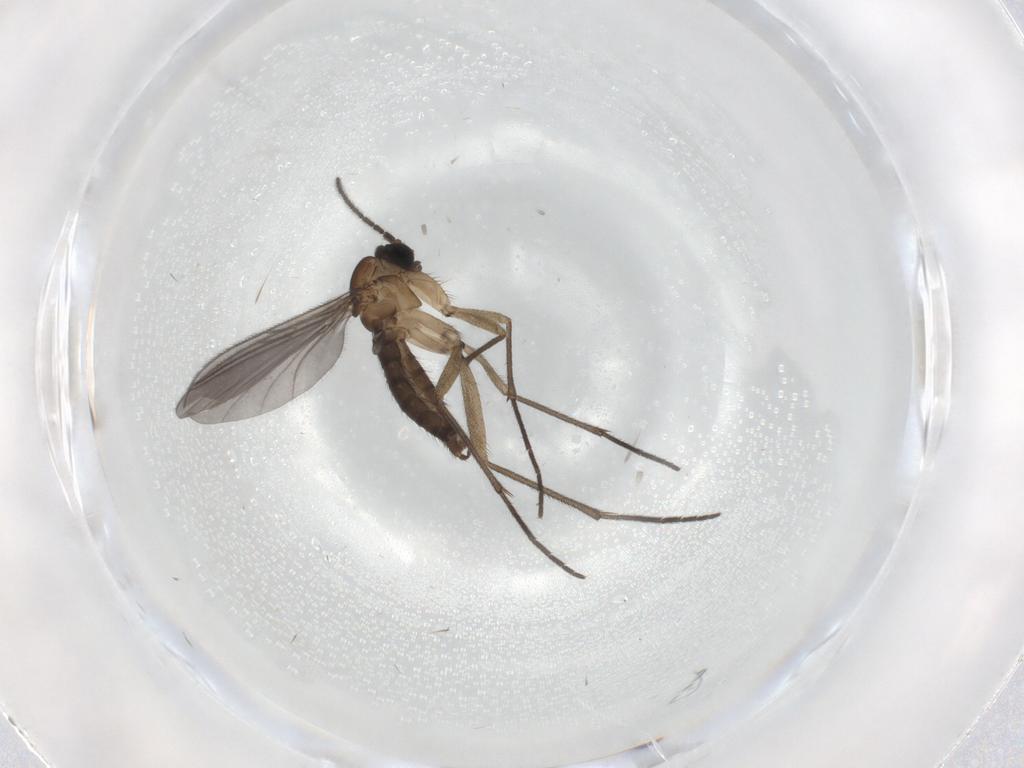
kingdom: Animalia
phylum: Arthropoda
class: Insecta
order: Diptera
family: Sciaridae
